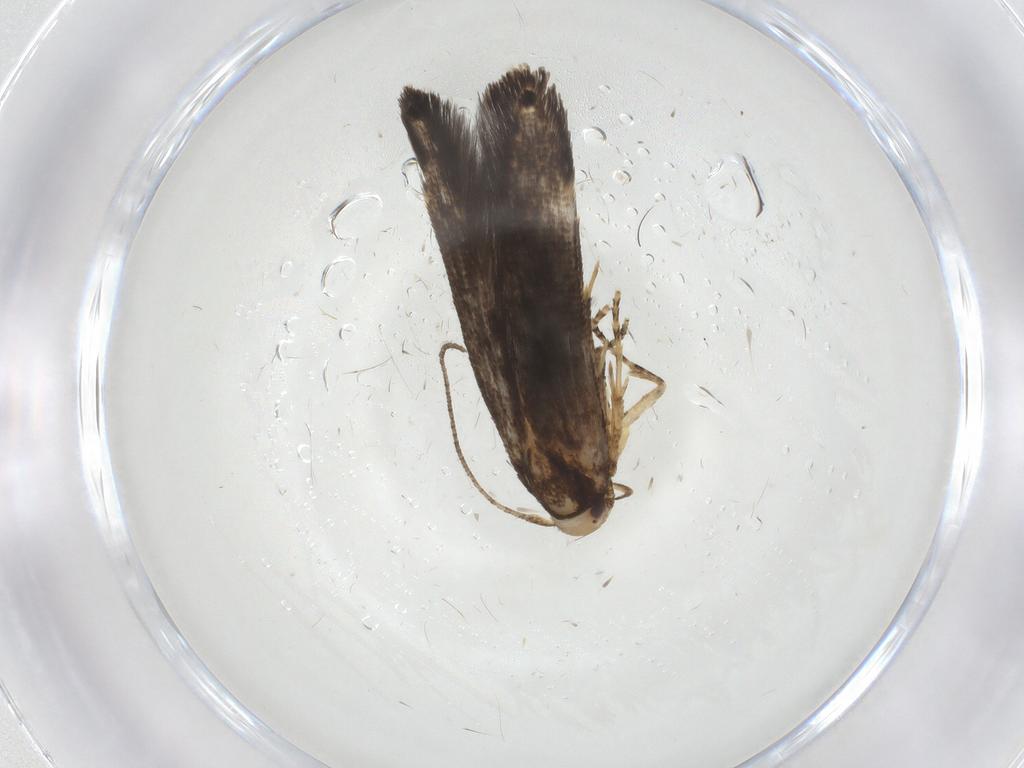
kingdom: Animalia
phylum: Arthropoda
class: Insecta
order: Lepidoptera
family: Scythrididae
